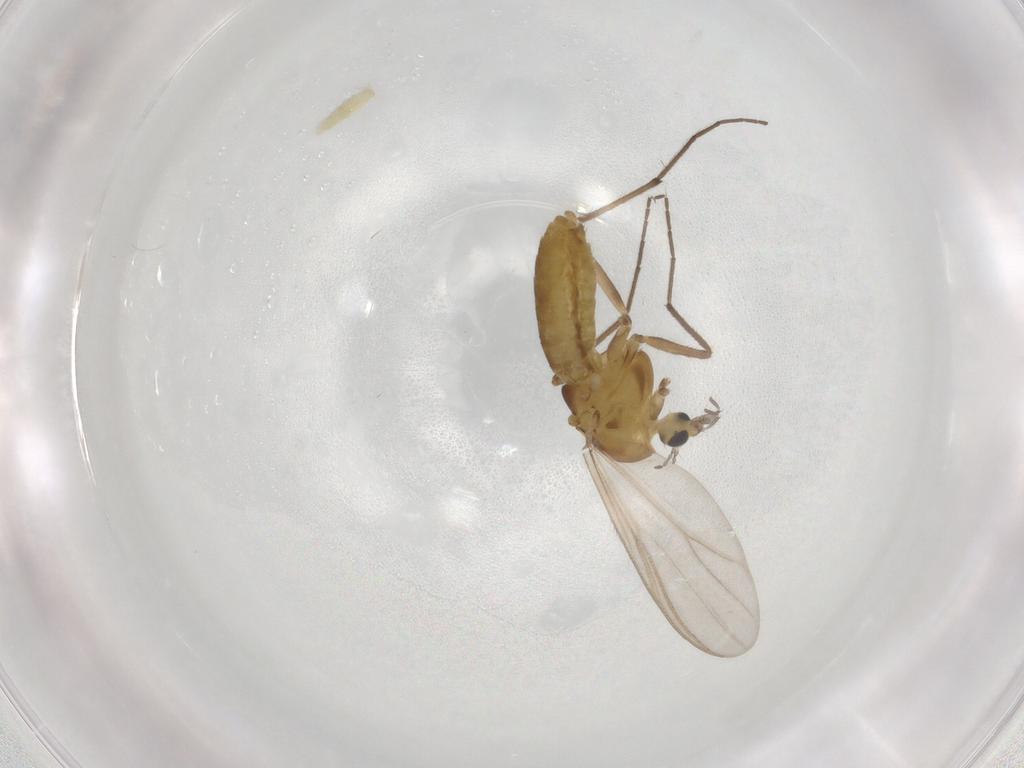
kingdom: Animalia
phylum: Arthropoda
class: Insecta
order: Diptera
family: Chironomidae
